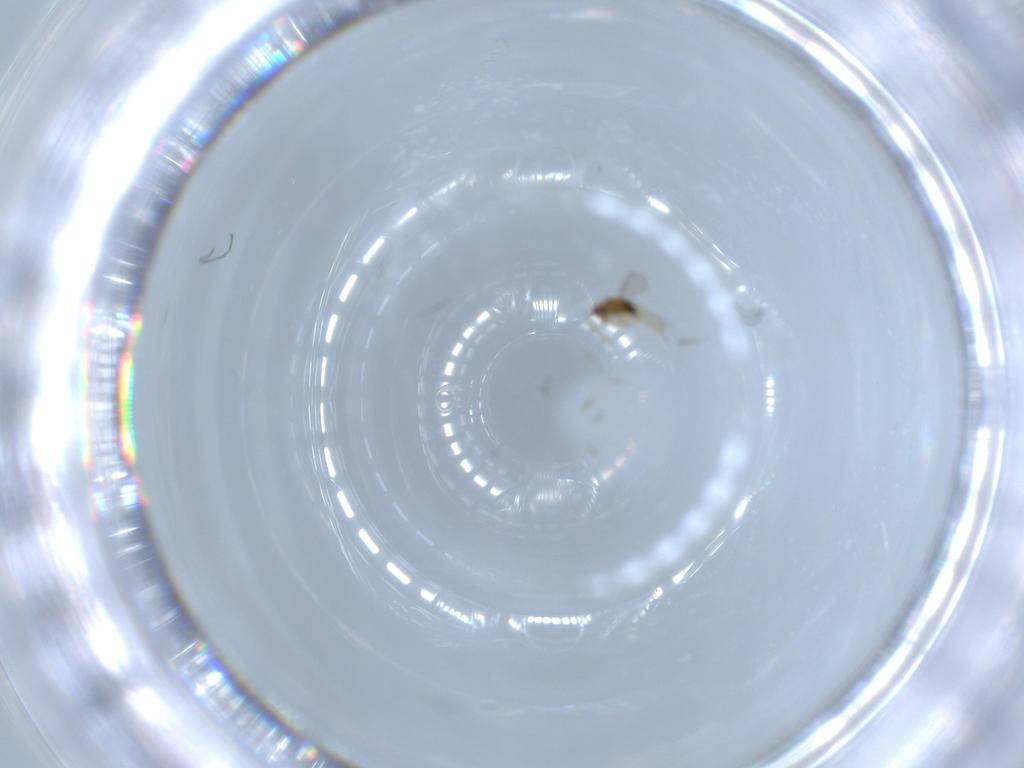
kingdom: Animalia
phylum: Arthropoda
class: Insecta
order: Hymenoptera
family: Aphelinidae
